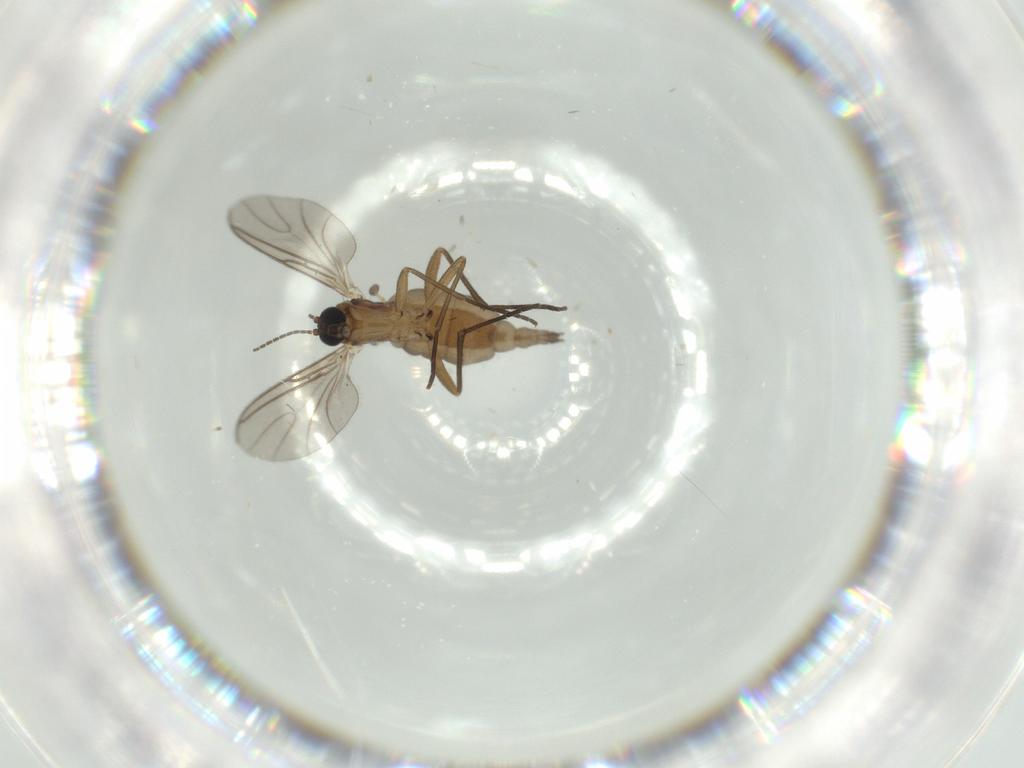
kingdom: Animalia
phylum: Arthropoda
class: Insecta
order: Diptera
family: Sciaridae
